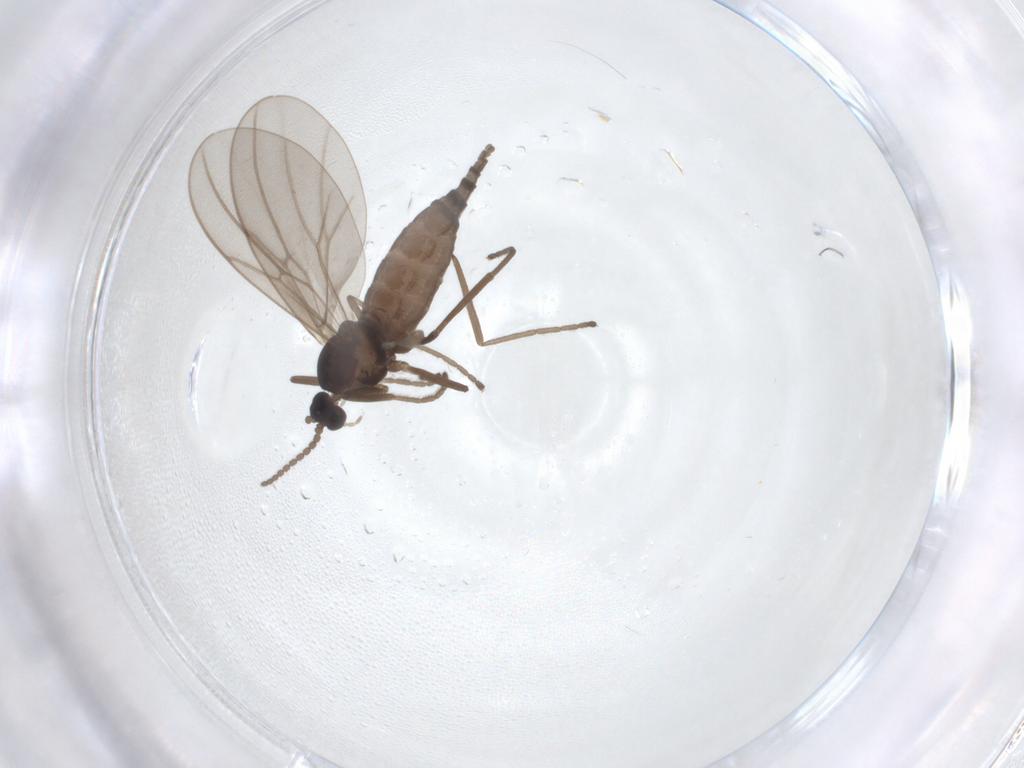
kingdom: Animalia
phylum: Arthropoda
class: Insecta
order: Diptera
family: Cecidomyiidae
